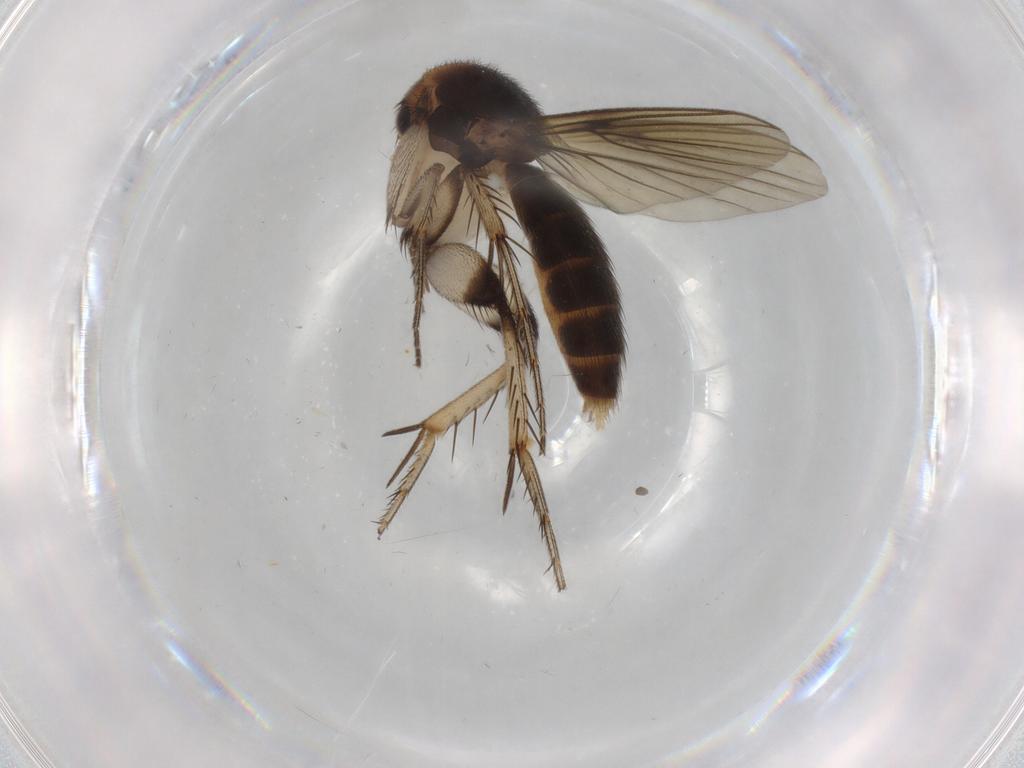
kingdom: Animalia
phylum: Arthropoda
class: Insecta
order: Diptera
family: Mycetophilidae
